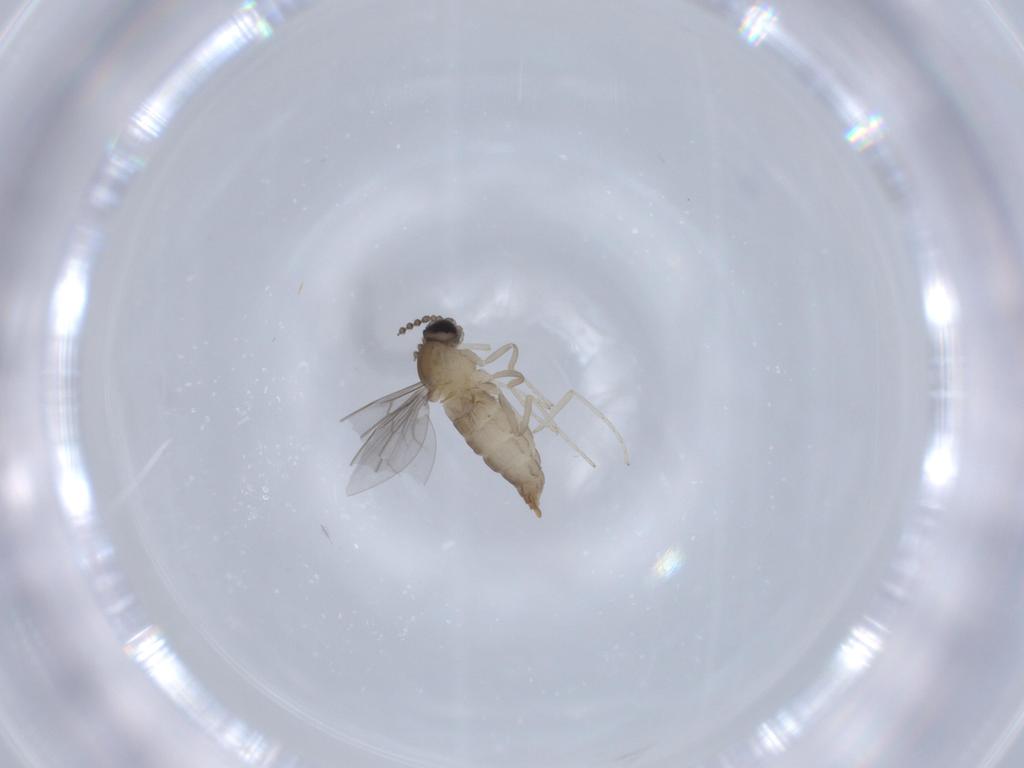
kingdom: Animalia
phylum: Arthropoda
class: Insecta
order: Diptera
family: Cecidomyiidae
